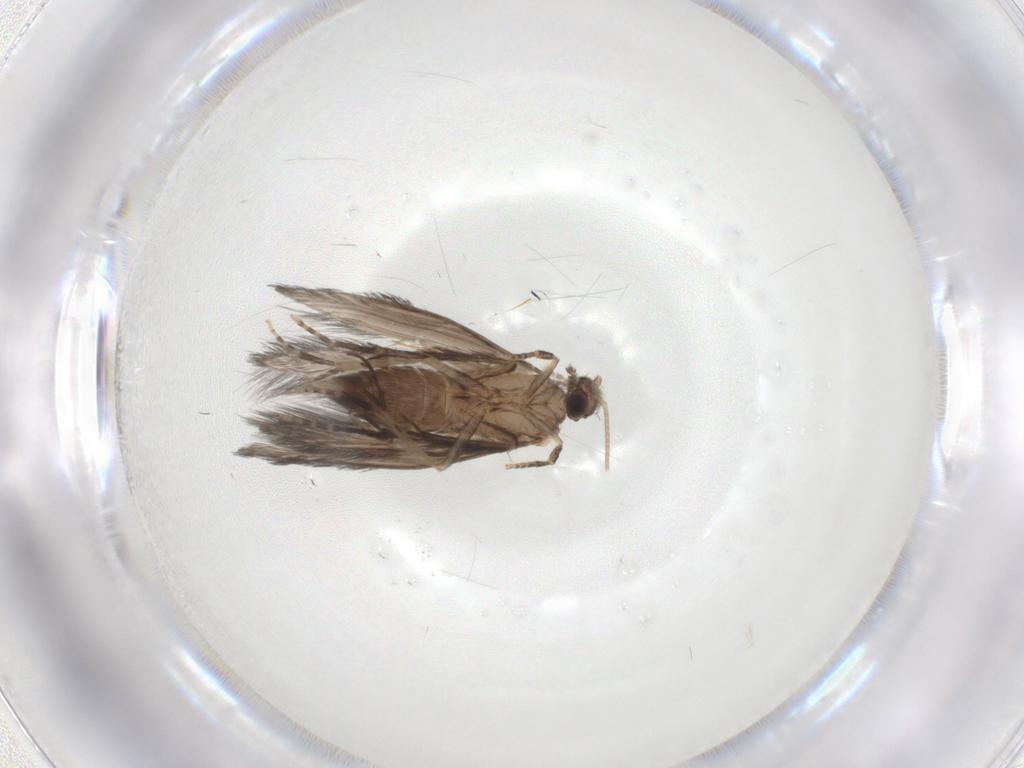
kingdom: Animalia
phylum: Arthropoda
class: Insecta
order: Trichoptera
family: Hydroptilidae
